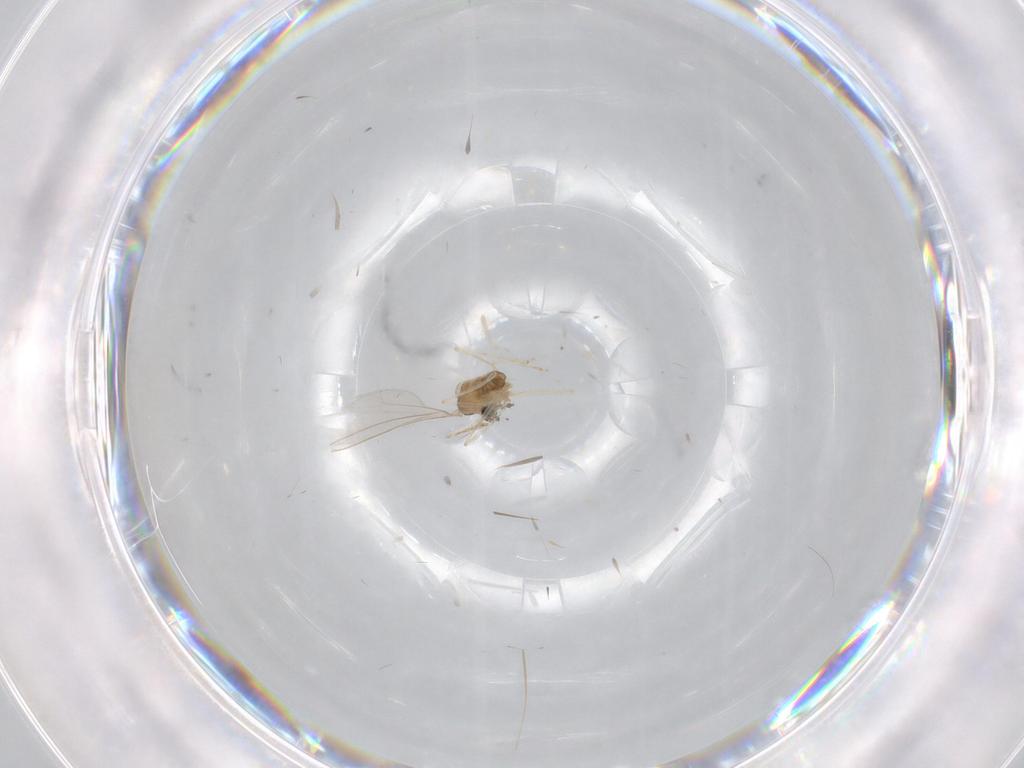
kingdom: Animalia
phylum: Arthropoda
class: Insecta
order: Diptera
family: Cecidomyiidae
